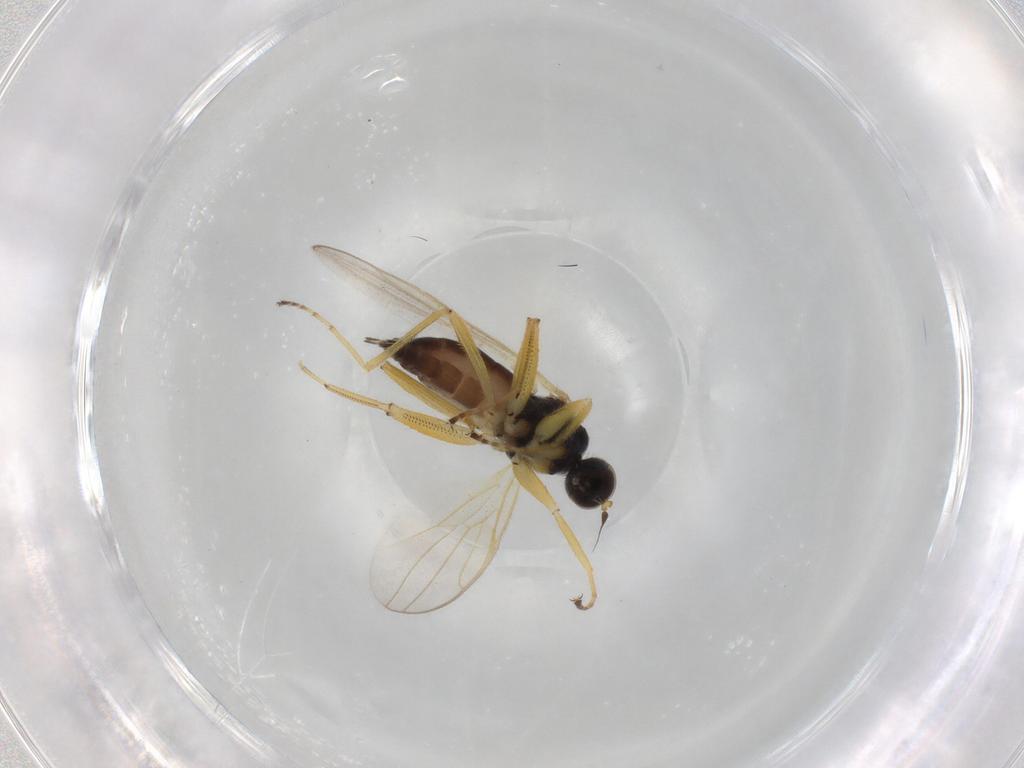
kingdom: Animalia
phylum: Arthropoda
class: Insecta
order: Diptera
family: Hybotidae
